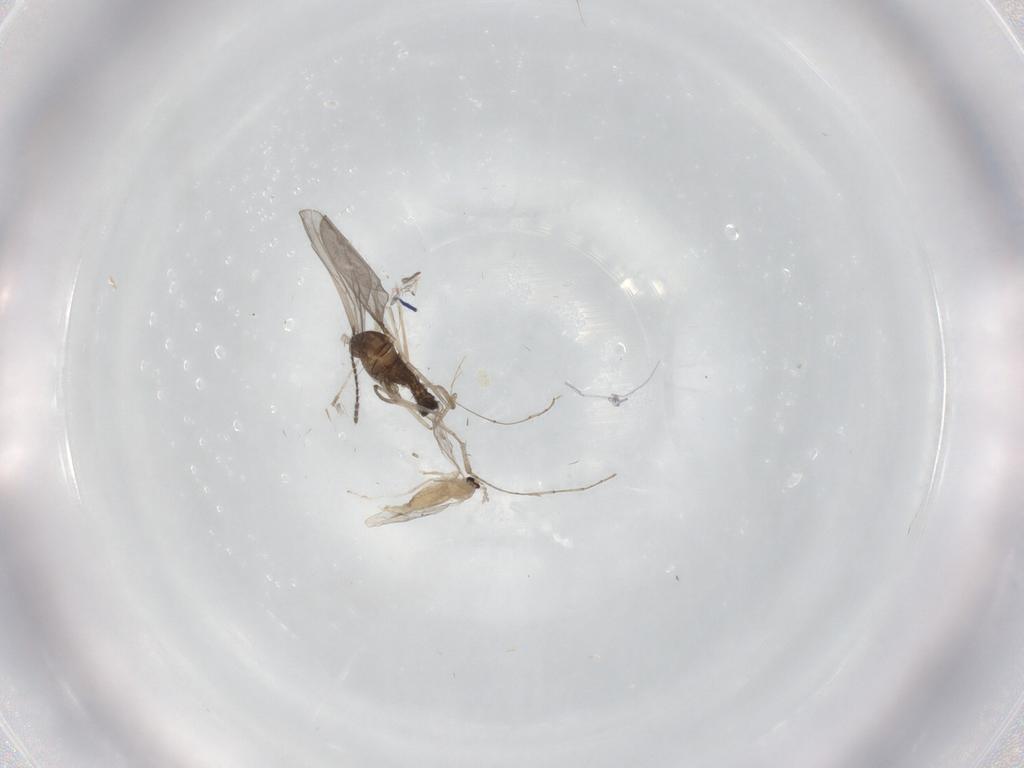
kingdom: Animalia
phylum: Arthropoda
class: Insecta
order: Diptera
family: Cecidomyiidae
